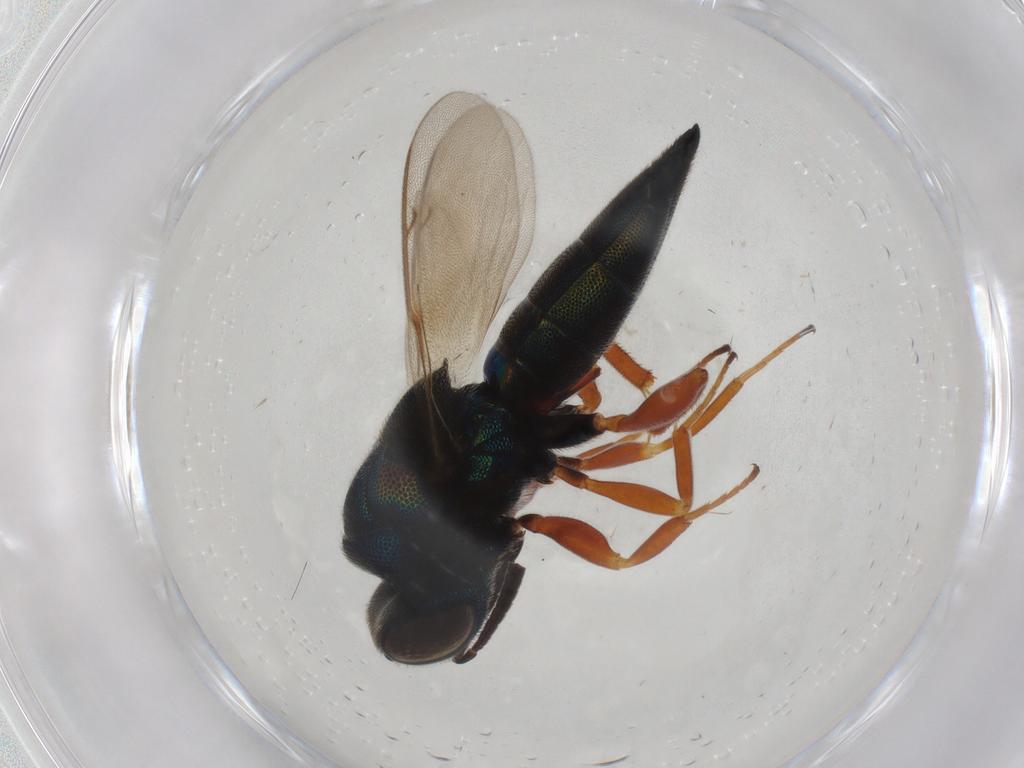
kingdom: Animalia
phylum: Arthropoda
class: Insecta
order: Hymenoptera
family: Lyciscidae
